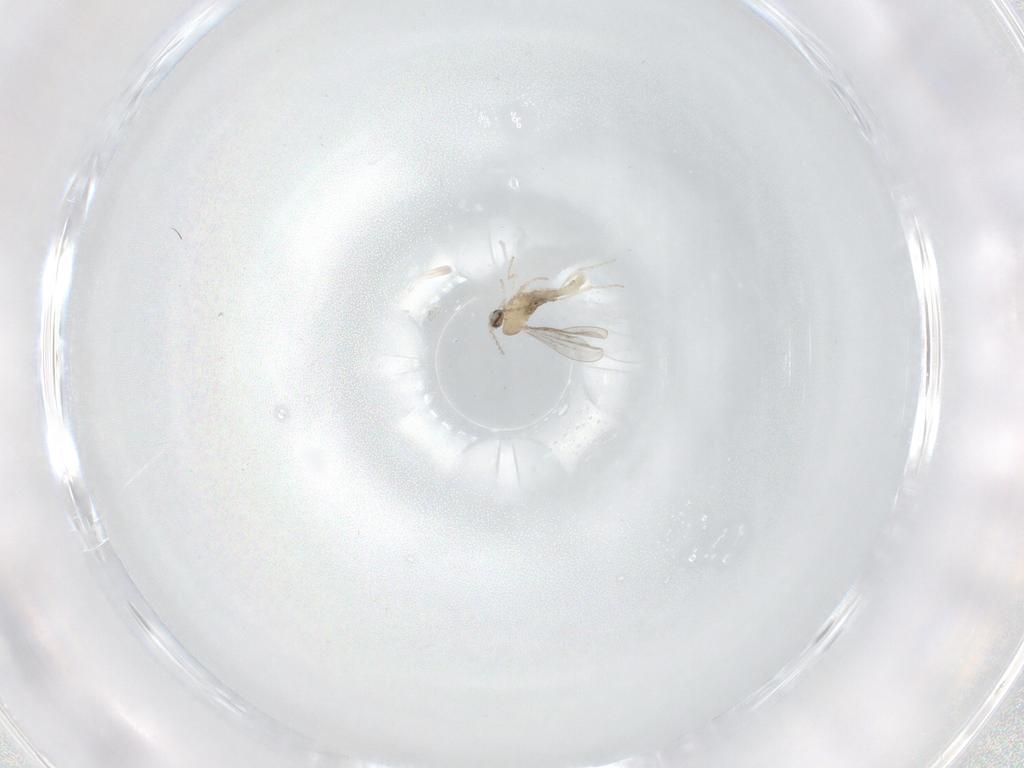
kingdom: Animalia
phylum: Arthropoda
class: Insecta
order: Diptera
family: Cecidomyiidae
